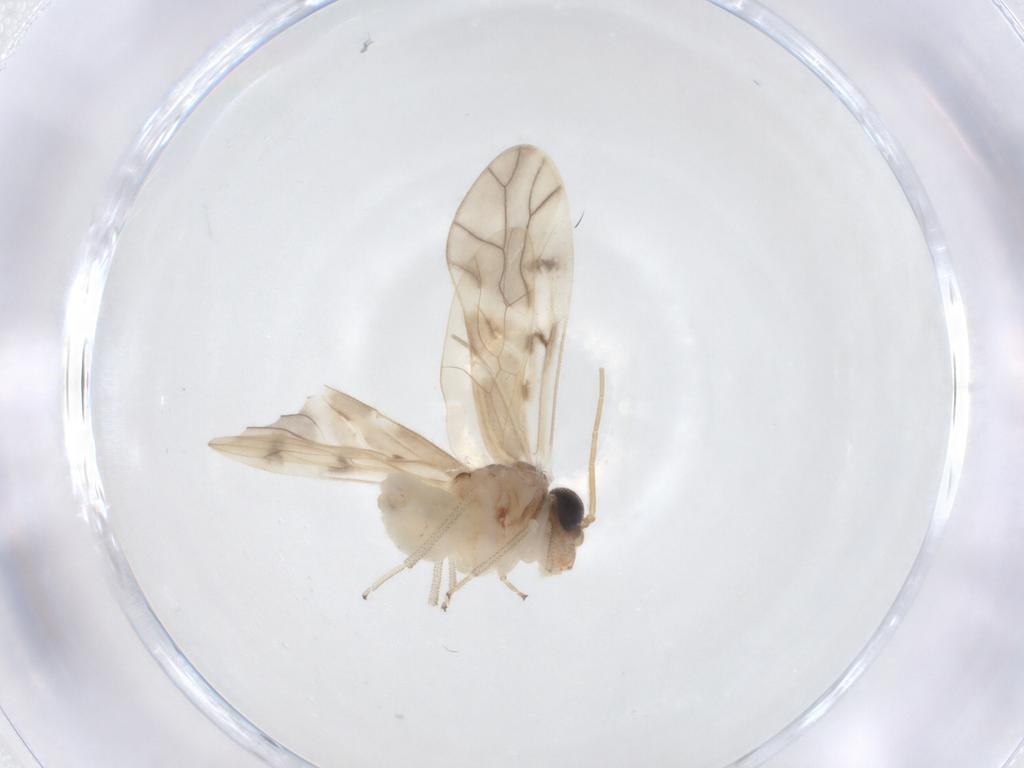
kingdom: Animalia
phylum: Arthropoda
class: Insecta
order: Psocodea
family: Caeciliusidae
